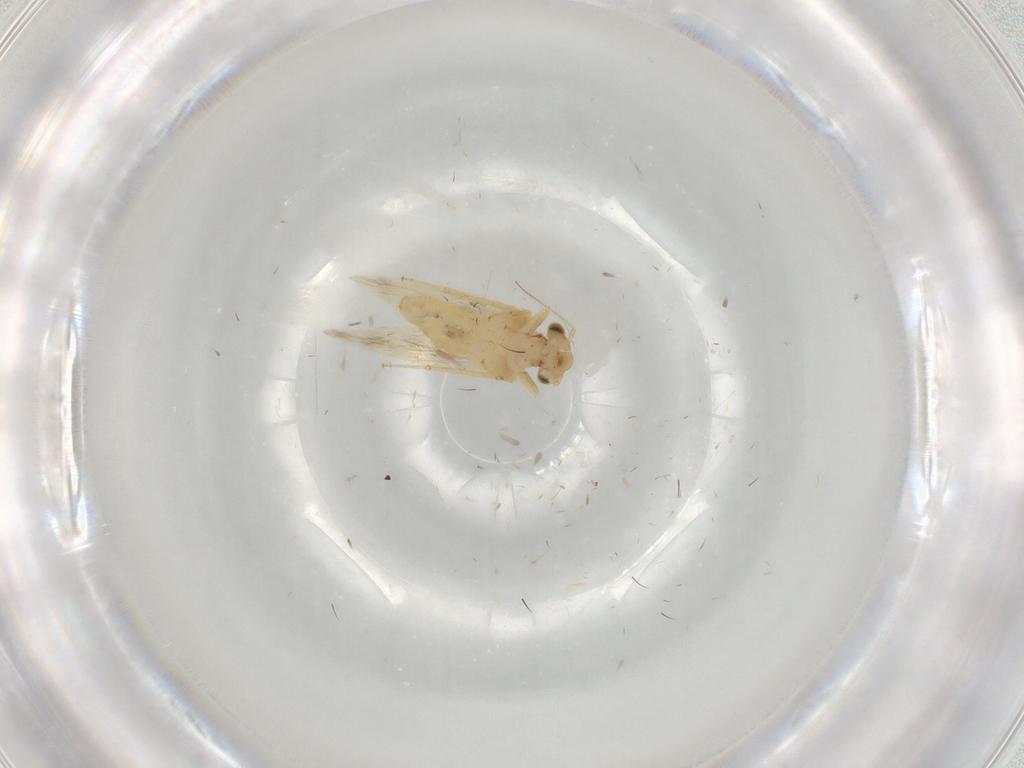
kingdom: Animalia
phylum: Arthropoda
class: Insecta
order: Psocodea
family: Lepidopsocidae
